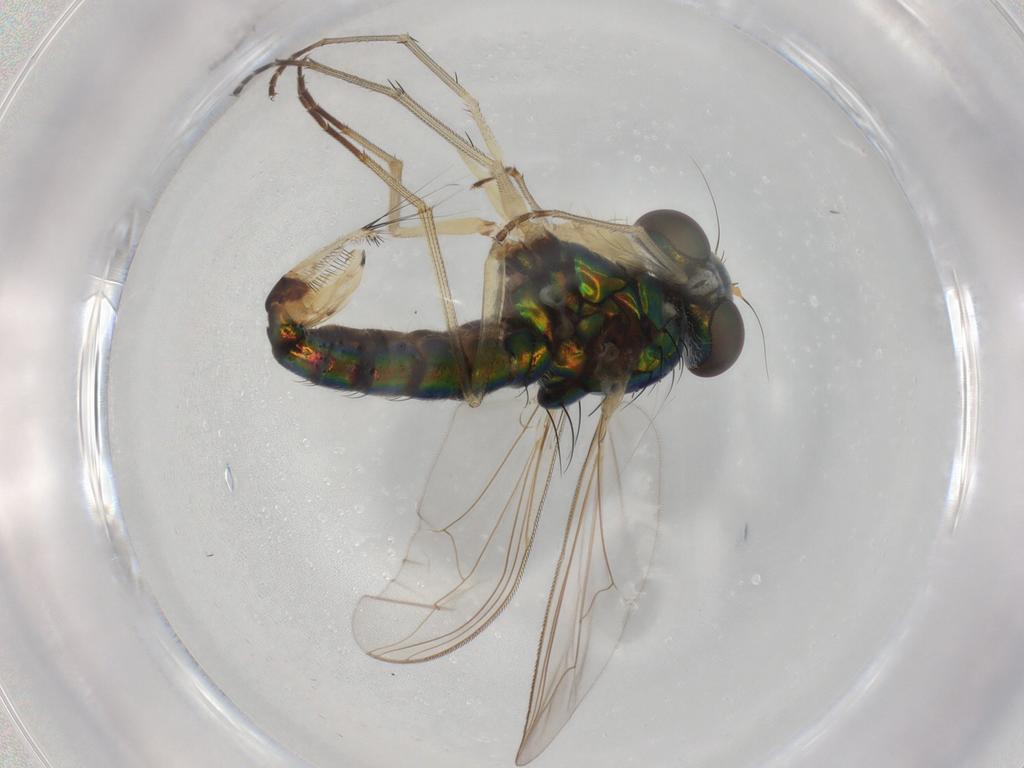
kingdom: Animalia
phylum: Arthropoda
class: Insecta
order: Diptera
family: Dolichopodidae
